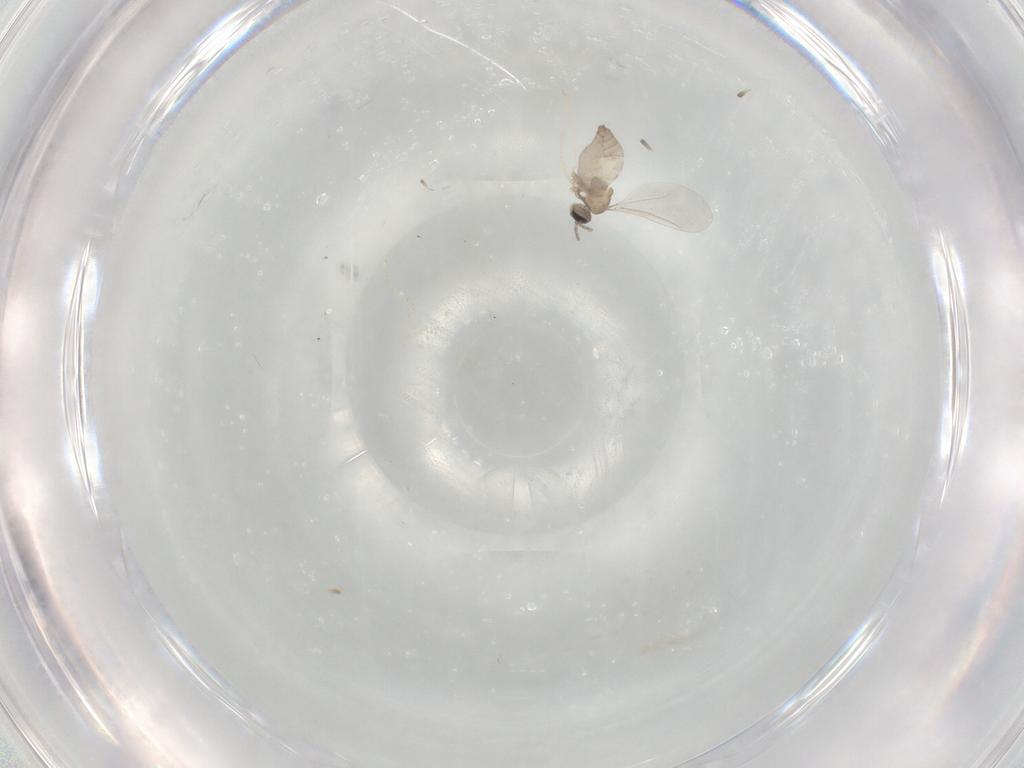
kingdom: Animalia
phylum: Arthropoda
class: Insecta
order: Diptera
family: Cecidomyiidae
